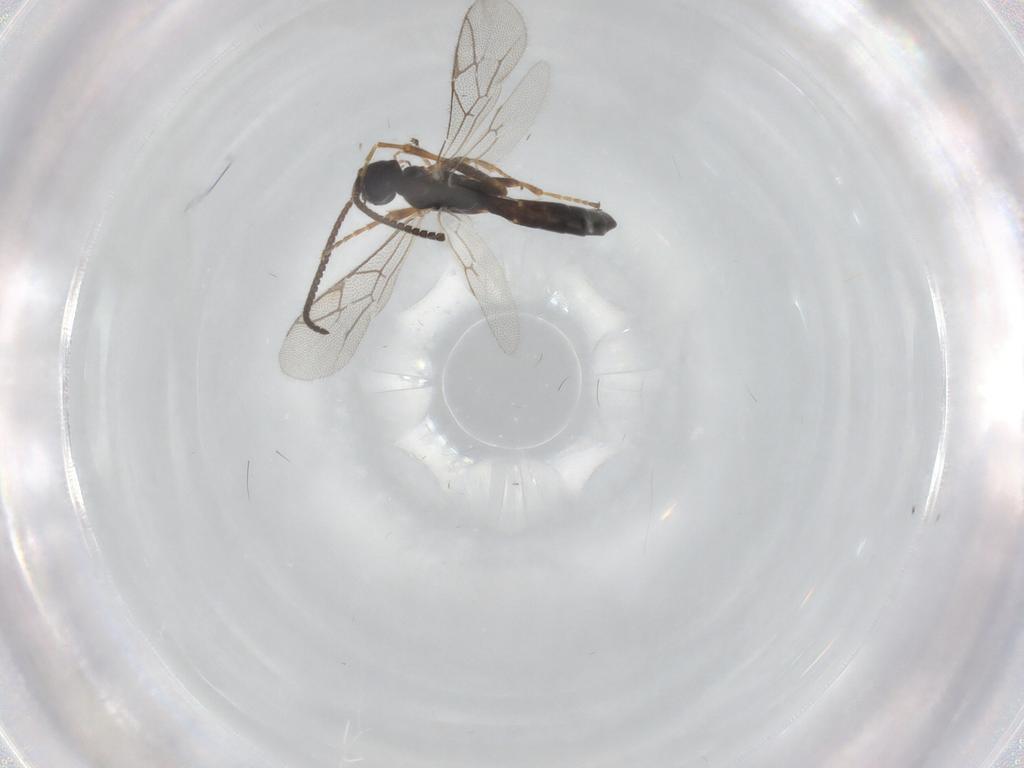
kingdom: Animalia
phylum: Arthropoda
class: Insecta
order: Hymenoptera
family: Ichneumonidae
